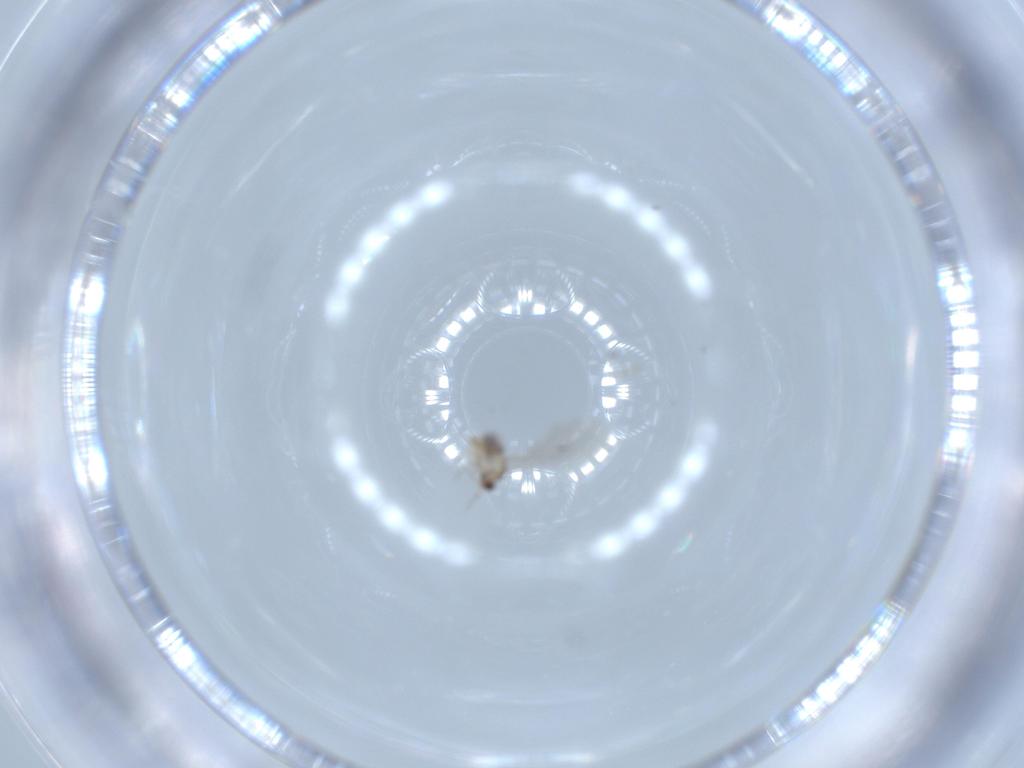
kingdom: Animalia
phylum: Arthropoda
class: Insecta
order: Diptera
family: Cecidomyiidae
